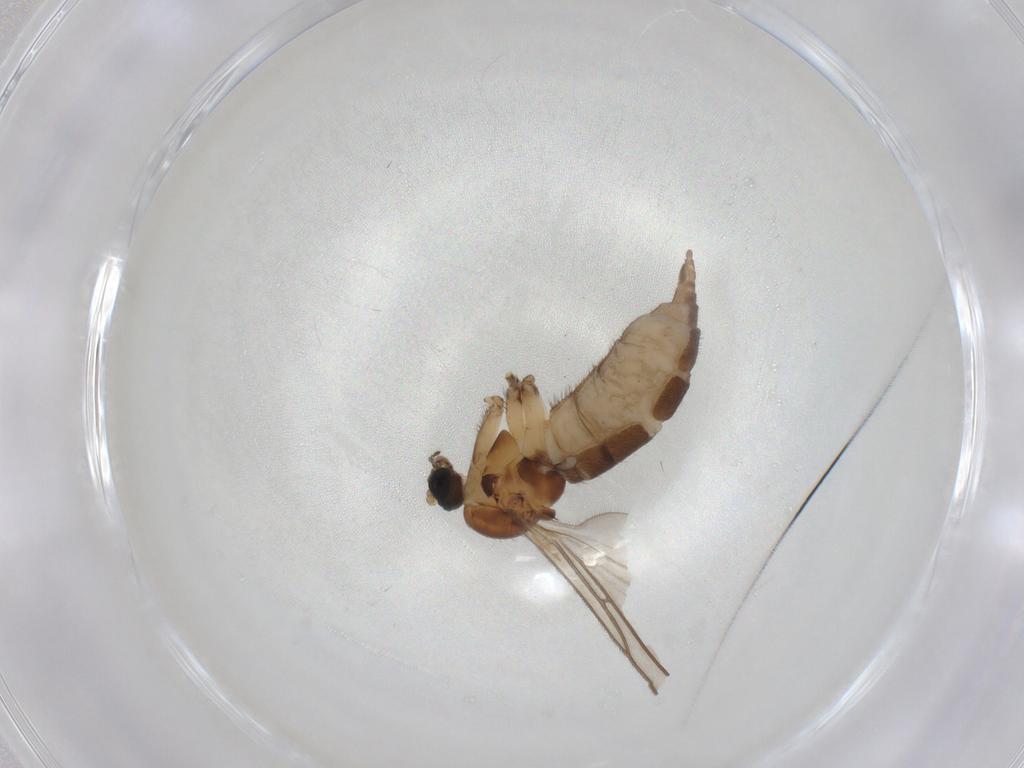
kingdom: Animalia
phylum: Arthropoda
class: Insecta
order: Diptera
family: Sciaridae
